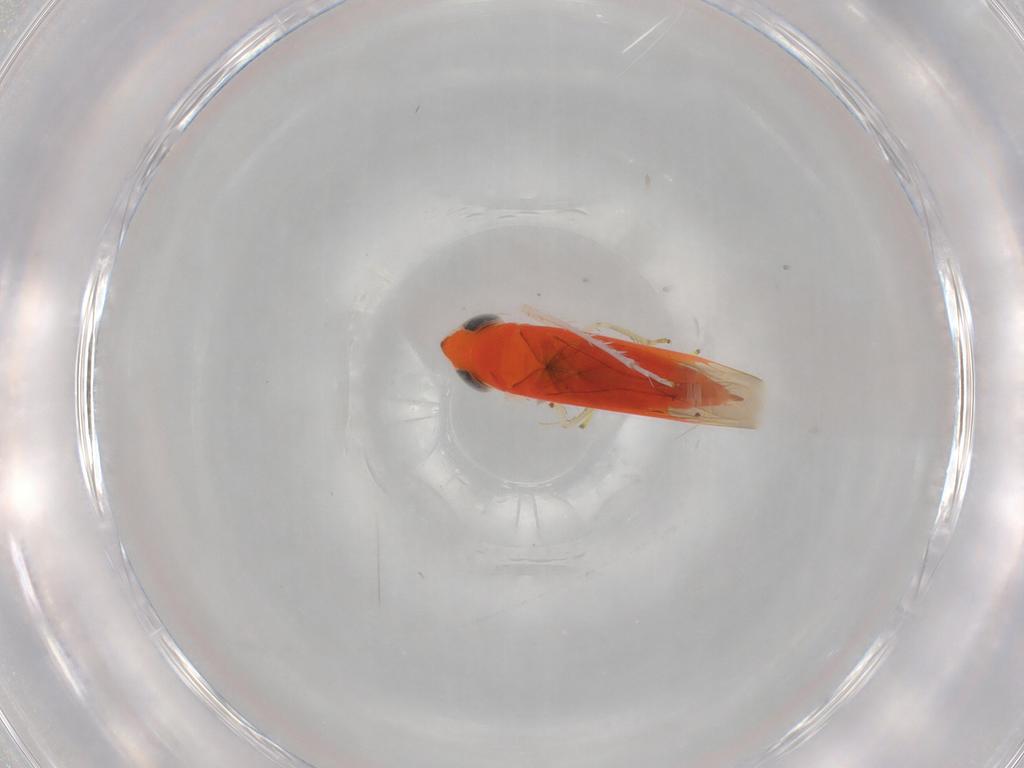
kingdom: Animalia
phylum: Arthropoda
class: Insecta
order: Hemiptera
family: Cicadellidae
